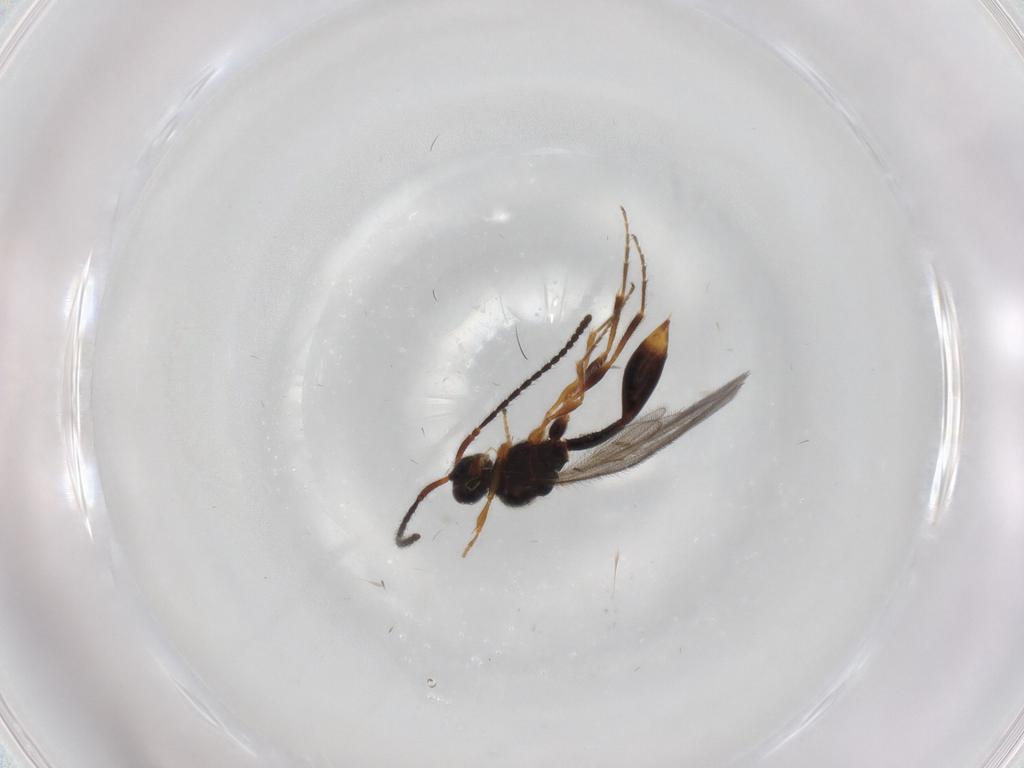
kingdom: Animalia
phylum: Arthropoda
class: Insecta
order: Hymenoptera
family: Diapriidae
